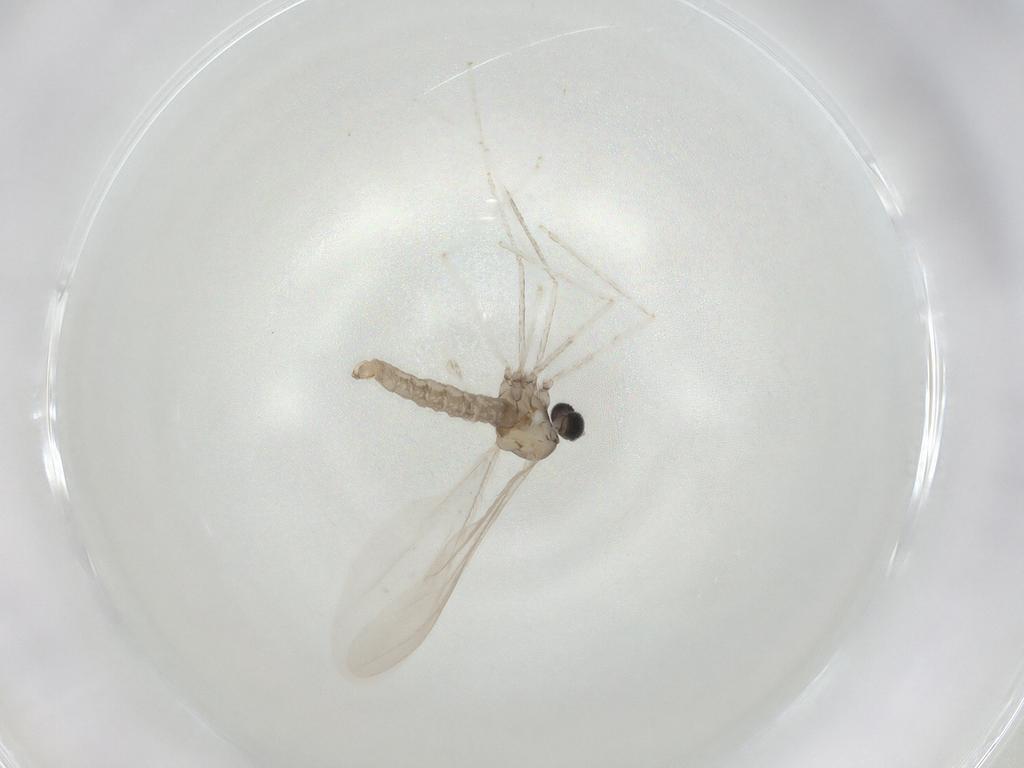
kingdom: Animalia
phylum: Arthropoda
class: Insecta
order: Diptera
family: Cecidomyiidae
